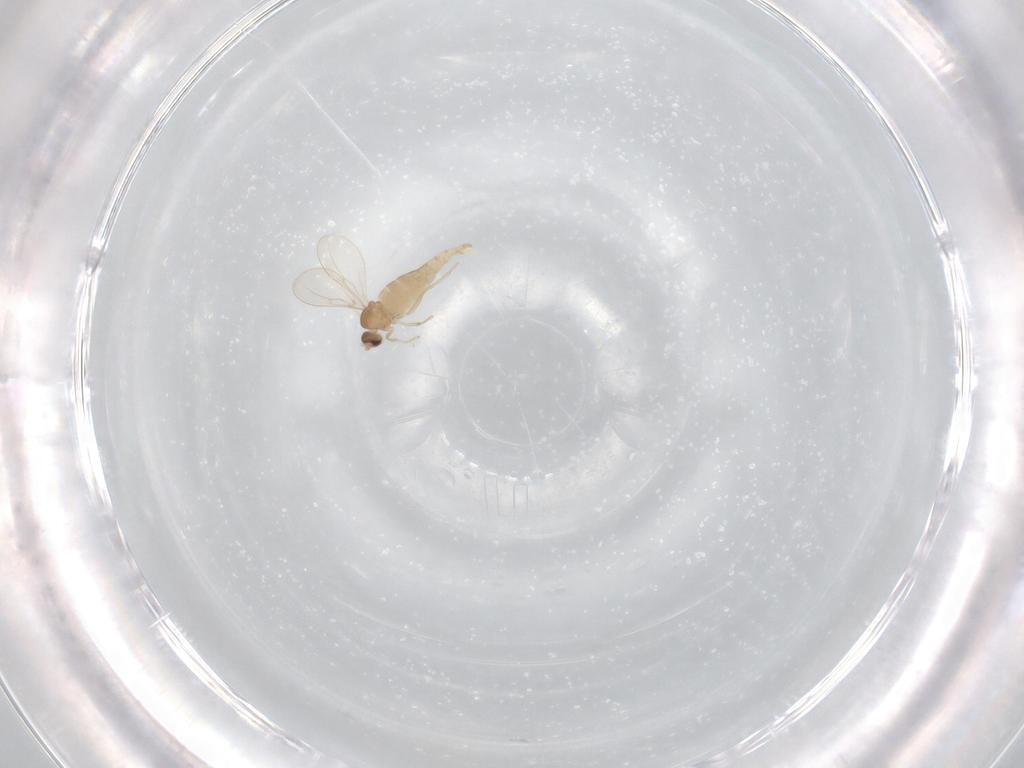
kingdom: Animalia
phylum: Arthropoda
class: Insecta
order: Diptera
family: Cecidomyiidae
